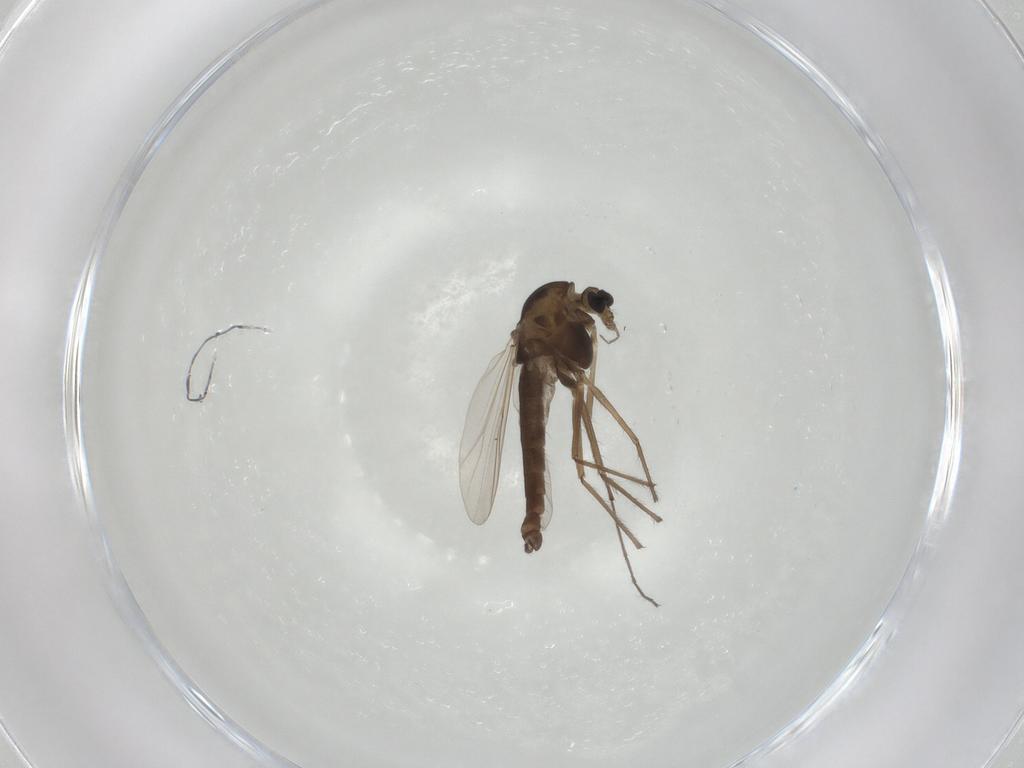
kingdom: Animalia
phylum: Arthropoda
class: Insecta
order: Diptera
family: Chironomidae
